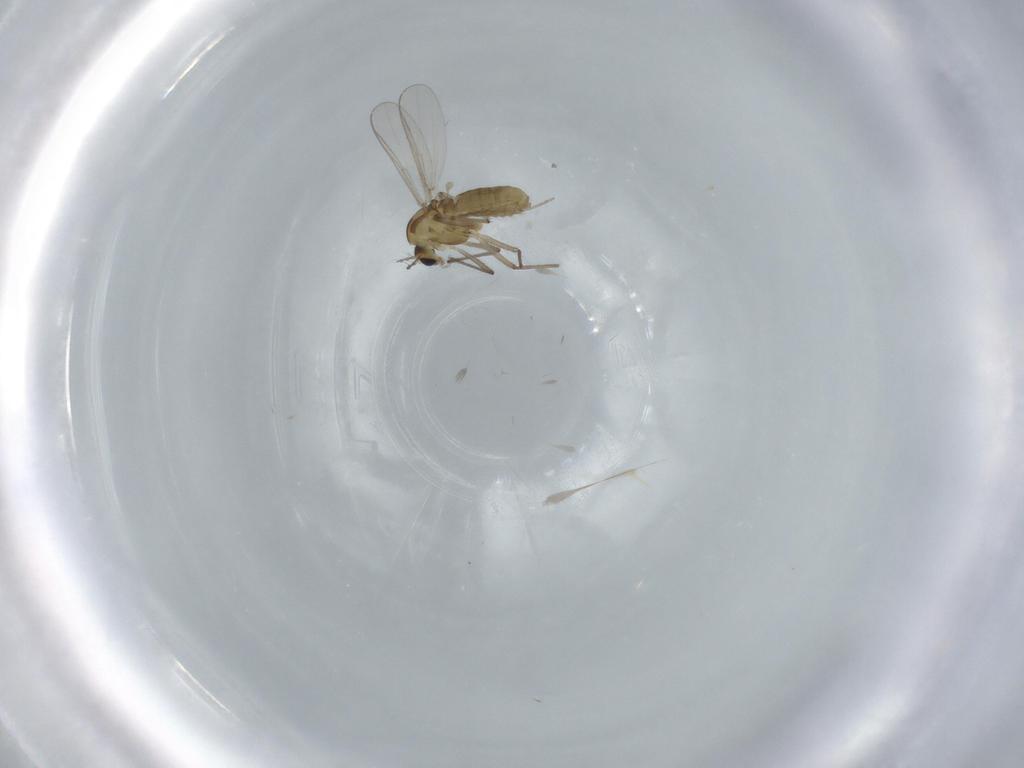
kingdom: Animalia
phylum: Arthropoda
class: Insecta
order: Diptera
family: Chironomidae
